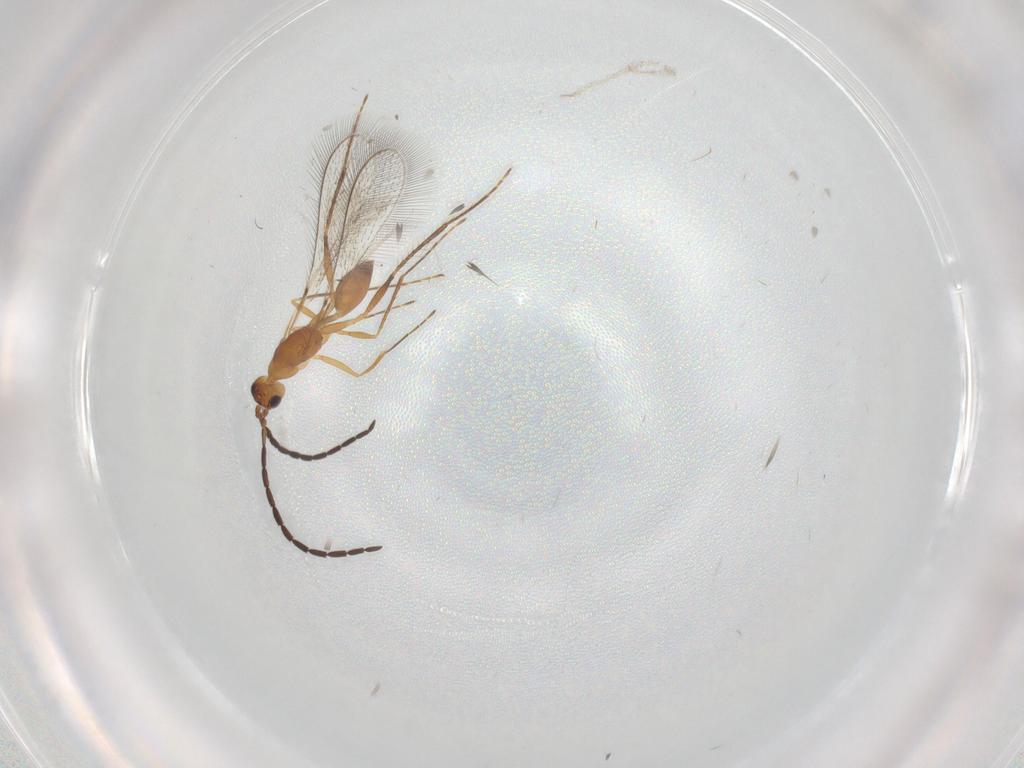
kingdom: Animalia
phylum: Arthropoda
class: Insecta
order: Hymenoptera
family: Mymaridae
